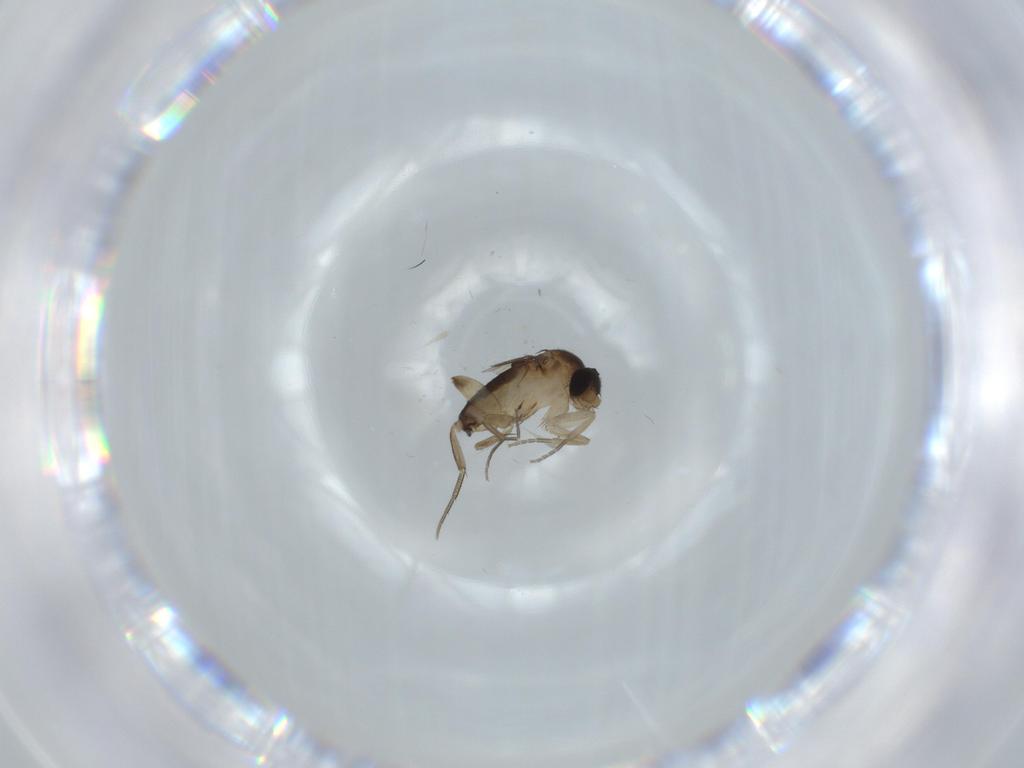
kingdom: Animalia
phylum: Arthropoda
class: Insecta
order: Diptera
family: Phoridae
